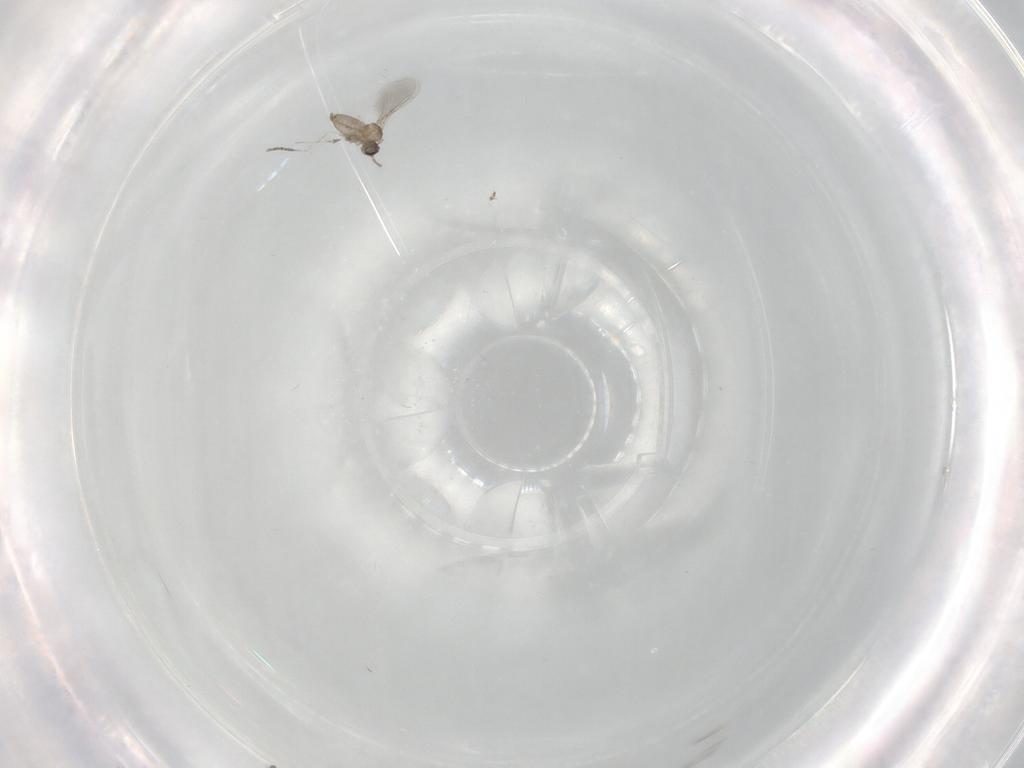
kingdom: Animalia
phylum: Arthropoda
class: Insecta
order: Diptera
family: Cecidomyiidae
